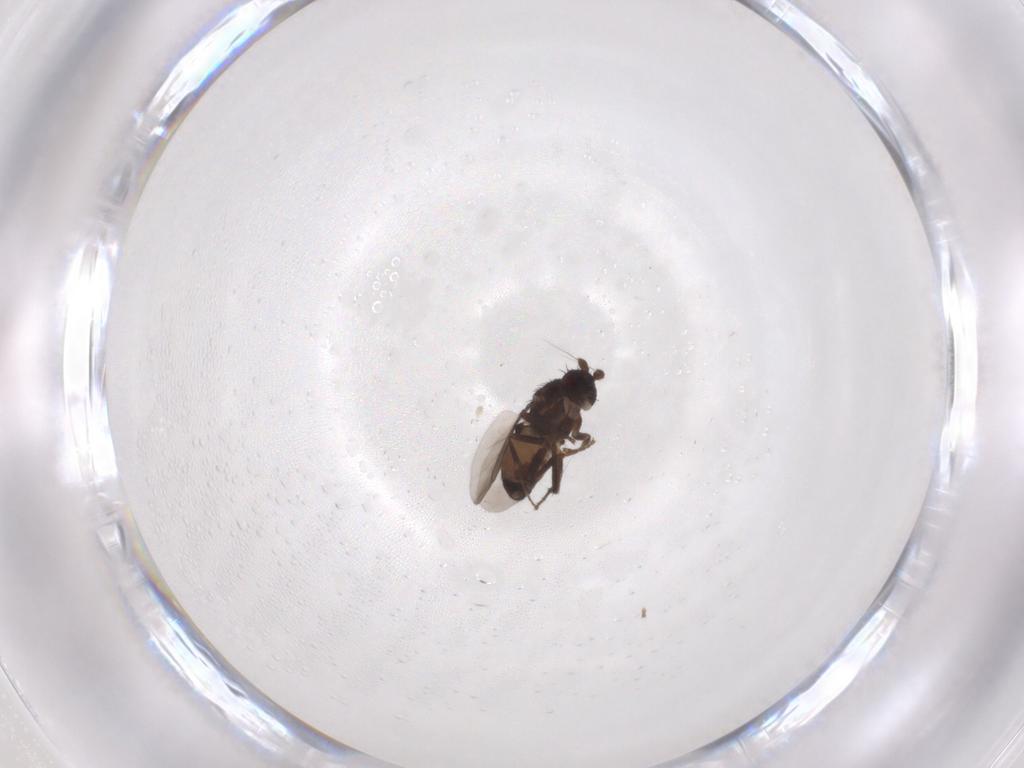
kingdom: Animalia
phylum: Arthropoda
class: Insecta
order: Diptera
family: Sphaeroceridae
